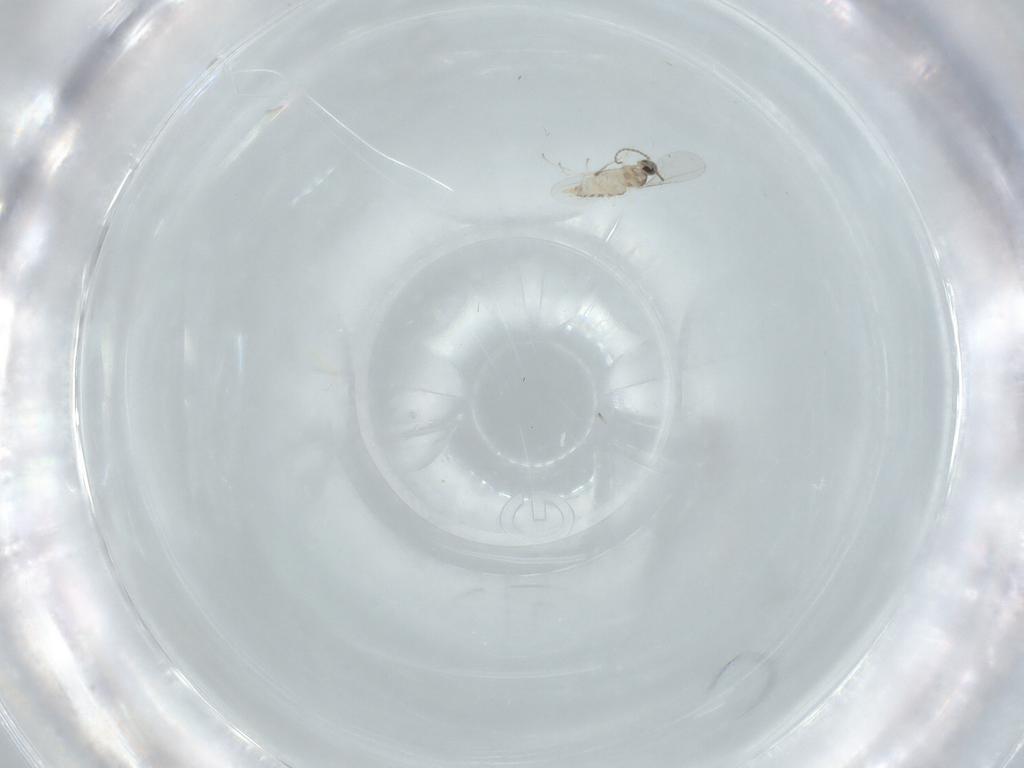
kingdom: Animalia
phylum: Arthropoda
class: Insecta
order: Diptera
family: Cecidomyiidae
